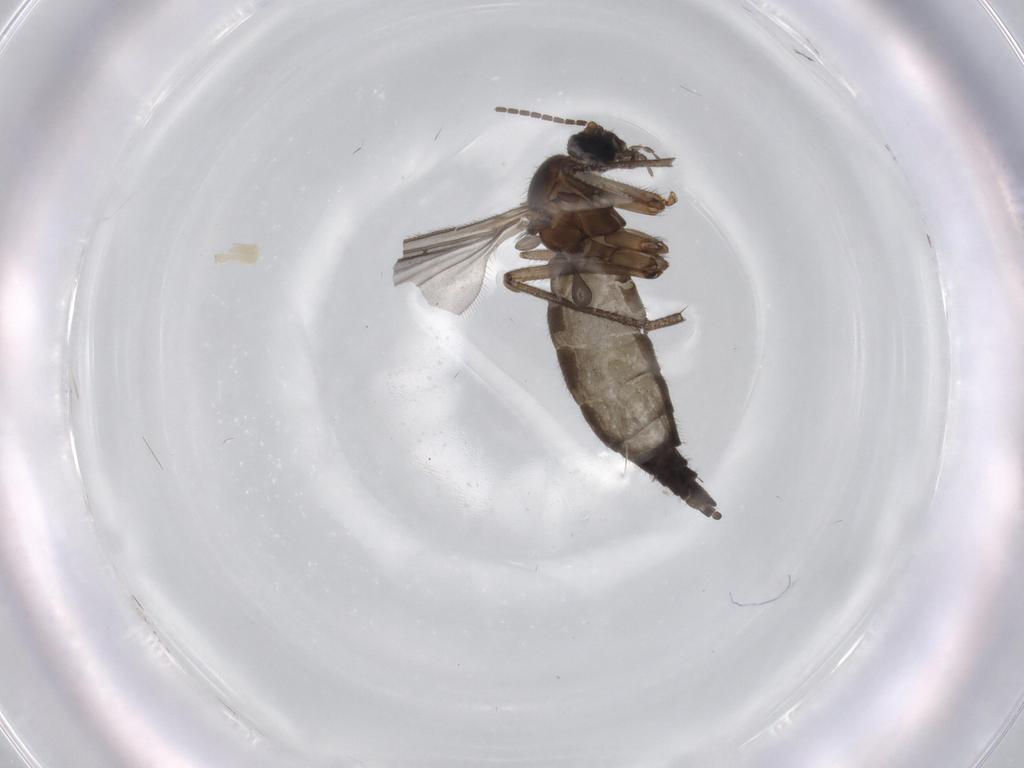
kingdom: Animalia
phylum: Arthropoda
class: Insecta
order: Diptera
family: Sciaridae
